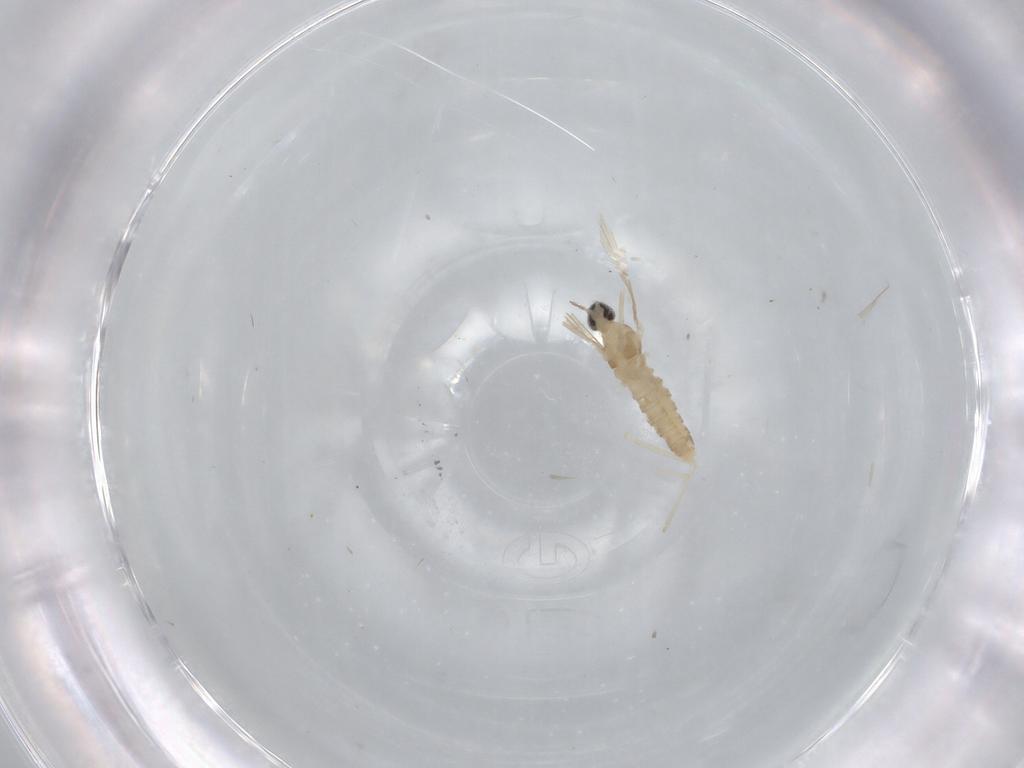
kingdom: Animalia
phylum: Arthropoda
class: Insecta
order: Diptera
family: Cecidomyiidae
